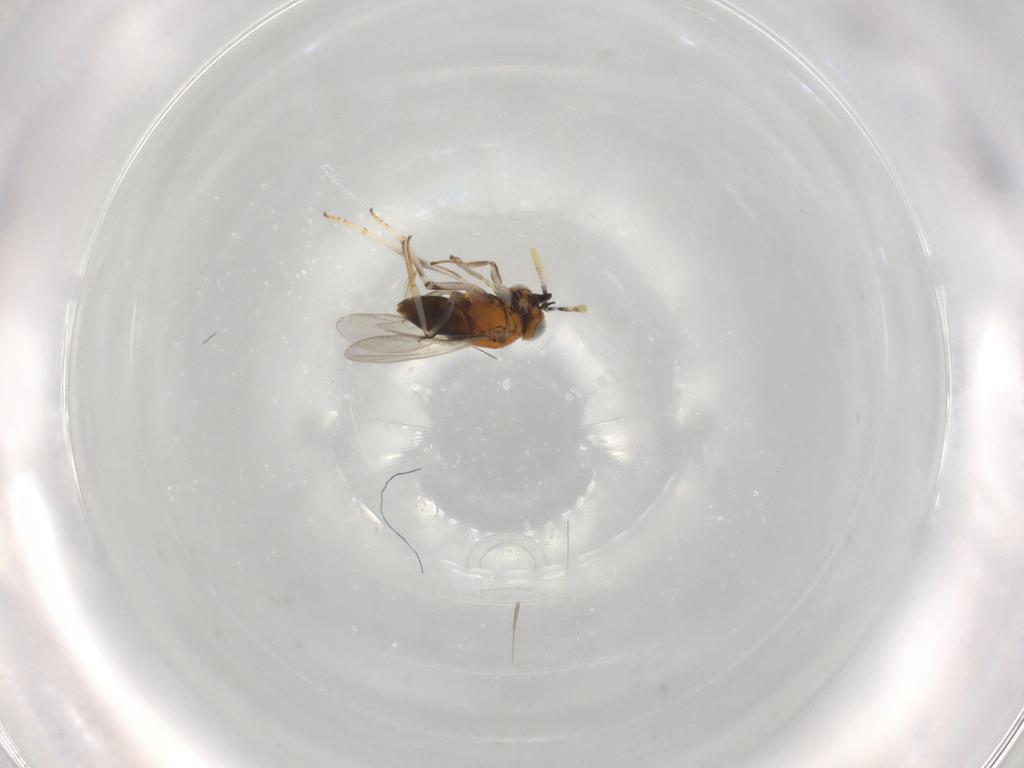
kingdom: Animalia
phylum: Arthropoda
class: Insecta
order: Hymenoptera
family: Encyrtidae
